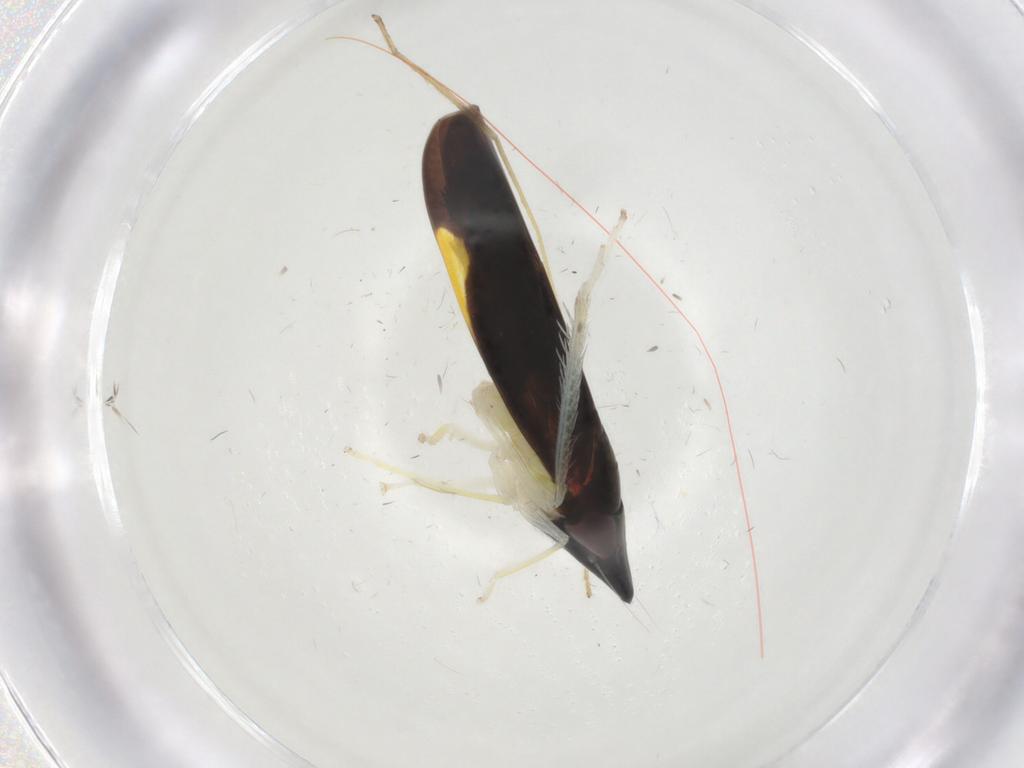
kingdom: Animalia
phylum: Arthropoda
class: Insecta
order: Hemiptera
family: Cicadellidae
